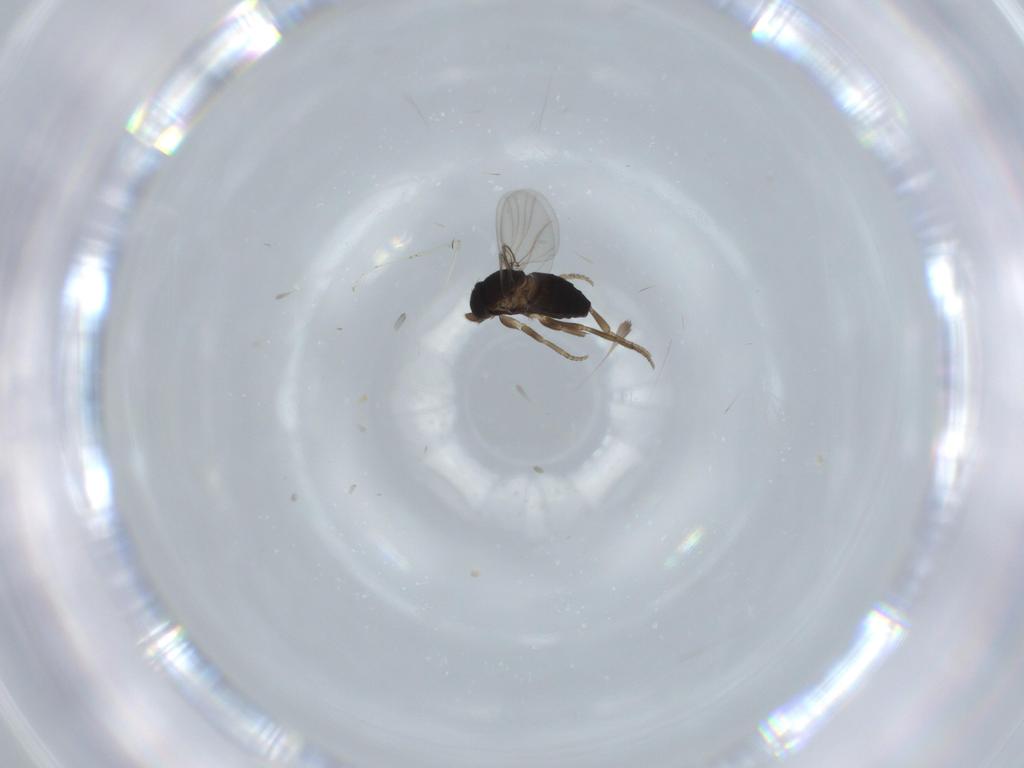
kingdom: Animalia
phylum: Arthropoda
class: Insecta
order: Diptera
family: Phoridae
